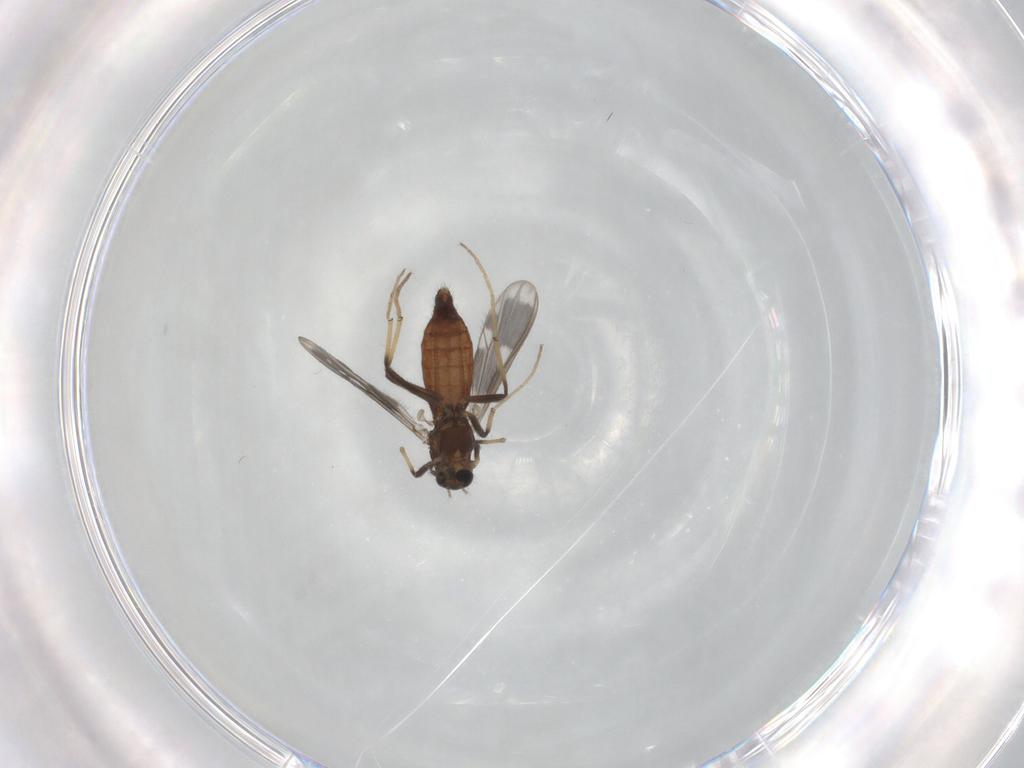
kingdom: Animalia
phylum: Arthropoda
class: Insecta
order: Diptera
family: Chironomidae
